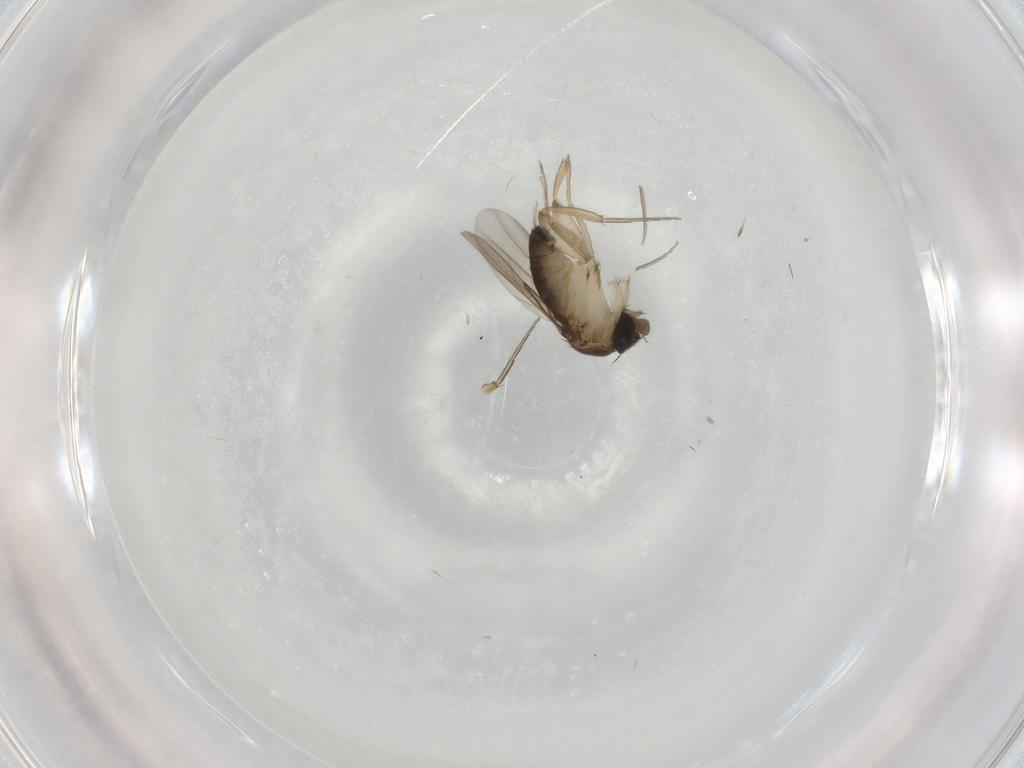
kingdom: Animalia
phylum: Arthropoda
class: Insecta
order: Diptera
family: Phoridae
